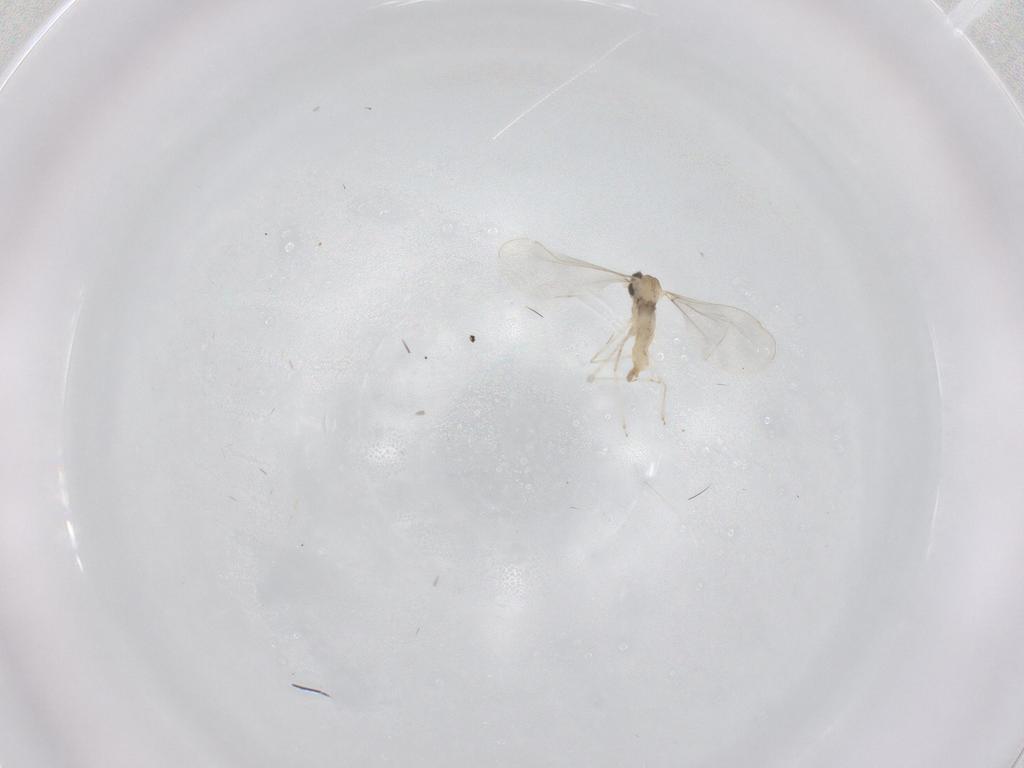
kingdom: Animalia
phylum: Arthropoda
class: Insecta
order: Diptera
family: Cecidomyiidae
